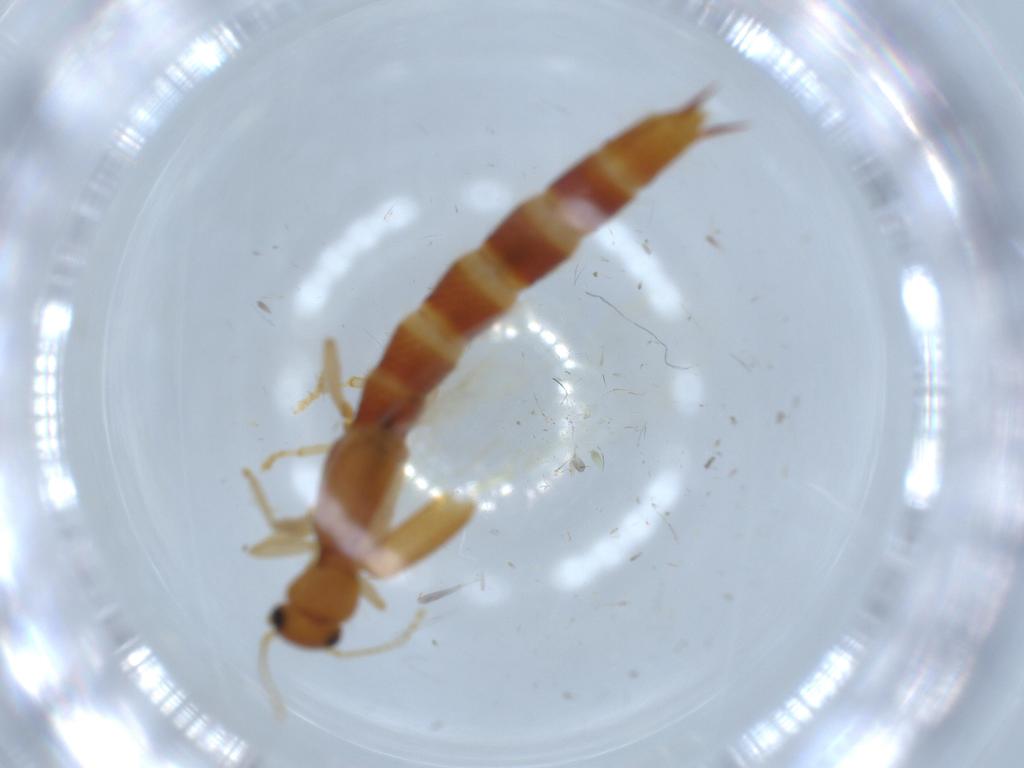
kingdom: Animalia
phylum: Arthropoda
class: Insecta
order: Coleoptera
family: Staphylinidae
